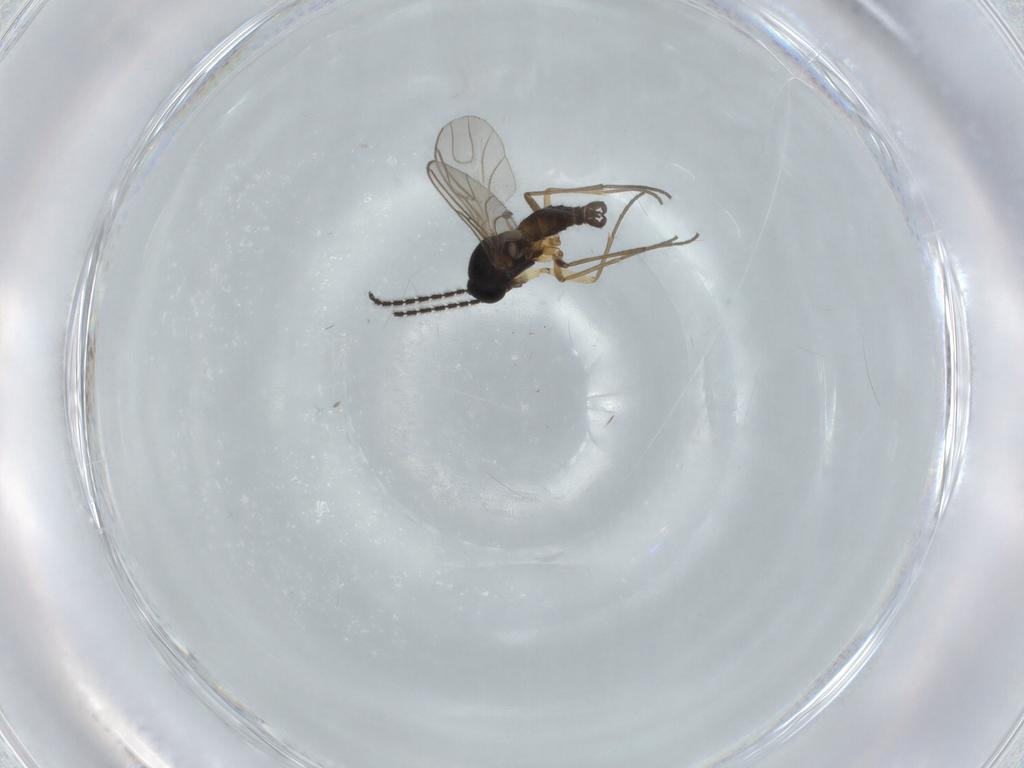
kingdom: Animalia
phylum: Arthropoda
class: Insecta
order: Diptera
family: Sciaridae
